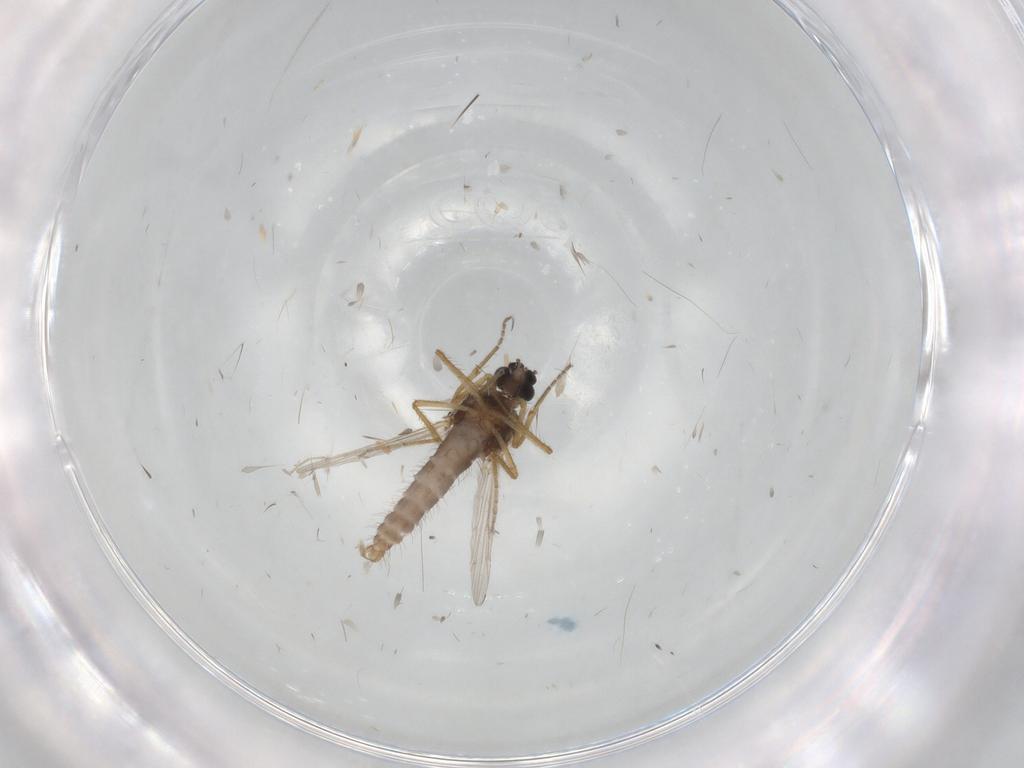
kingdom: Animalia
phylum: Arthropoda
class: Insecta
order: Diptera
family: Ceratopogonidae
